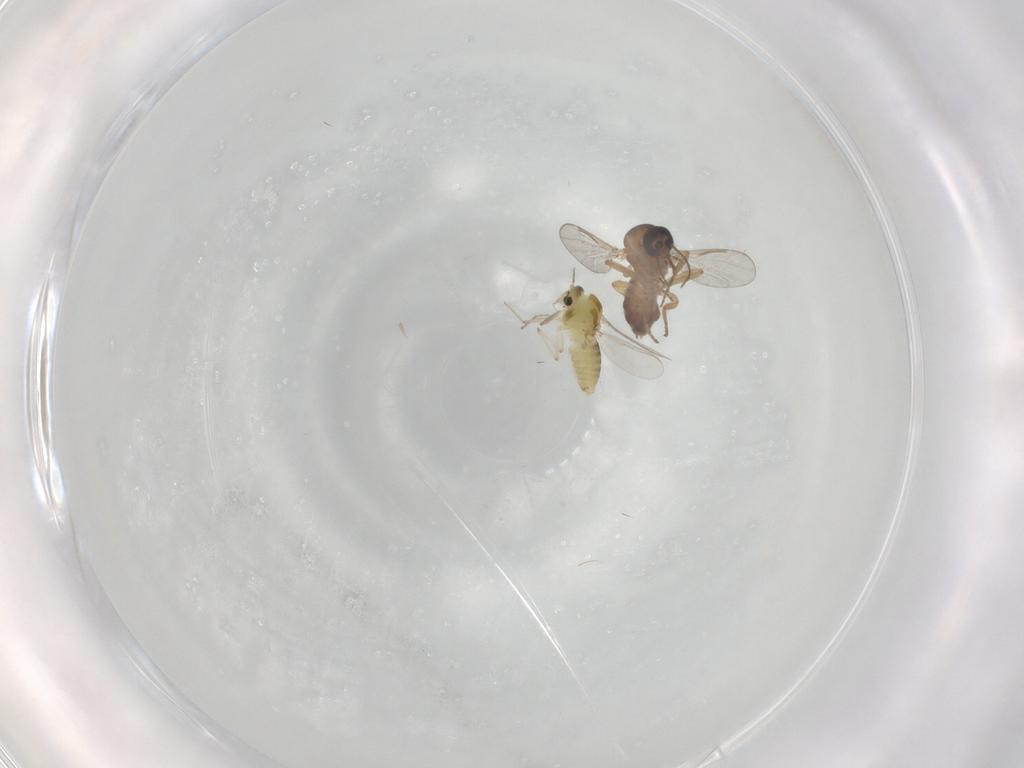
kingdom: Animalia
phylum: Arthropoda
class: Insecta
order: Diptera
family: Chironomidae
